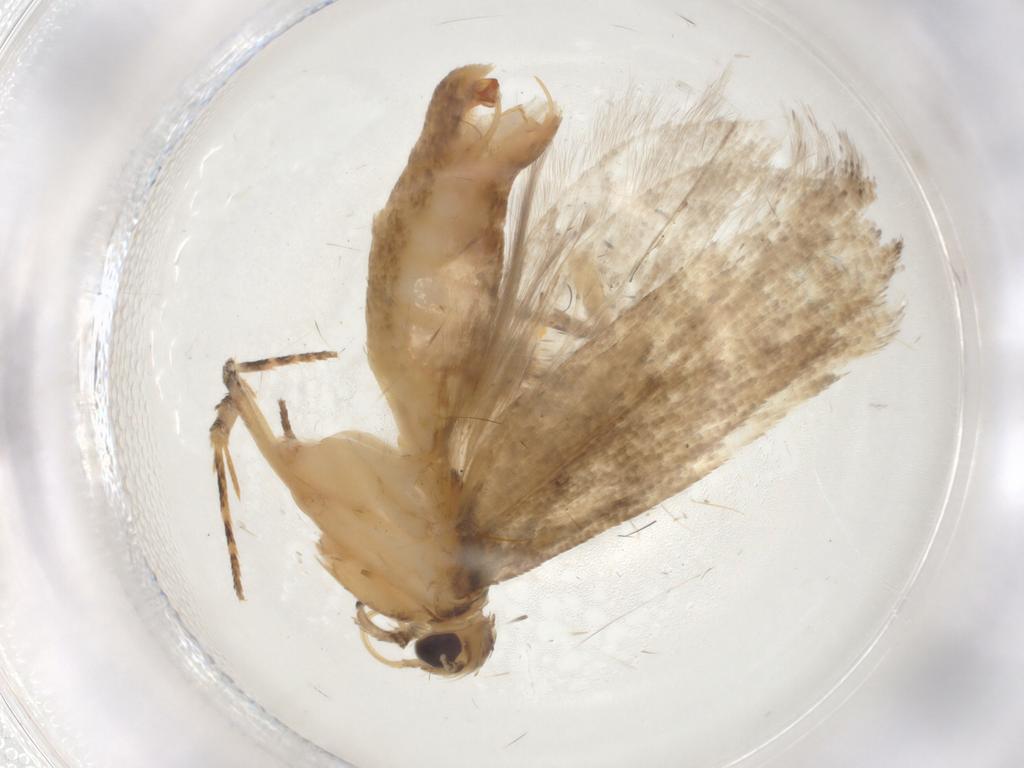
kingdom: Animalia
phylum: Arthropoda
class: Insecta
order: Lepidoptera
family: Gelechiidae
